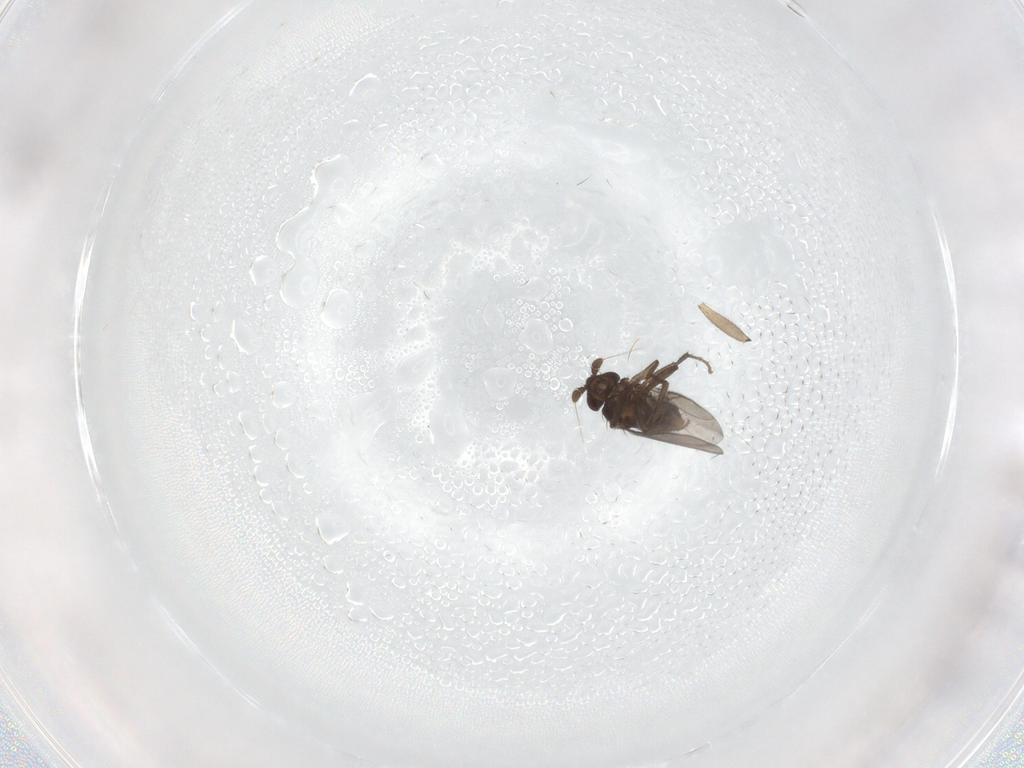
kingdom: Animalia
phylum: Arthropoda
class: Insecta
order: Diptera
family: Sphaeroceridae
